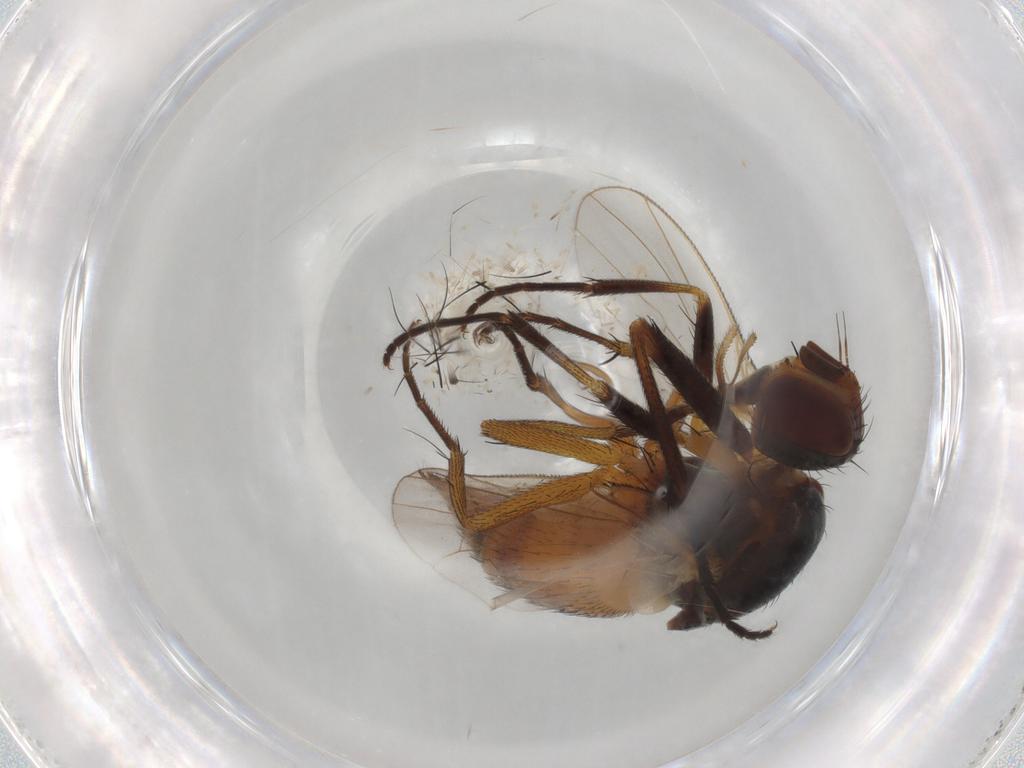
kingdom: Animalia
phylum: Arthropoda
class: Insecta
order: Diptera
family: Muscidae
